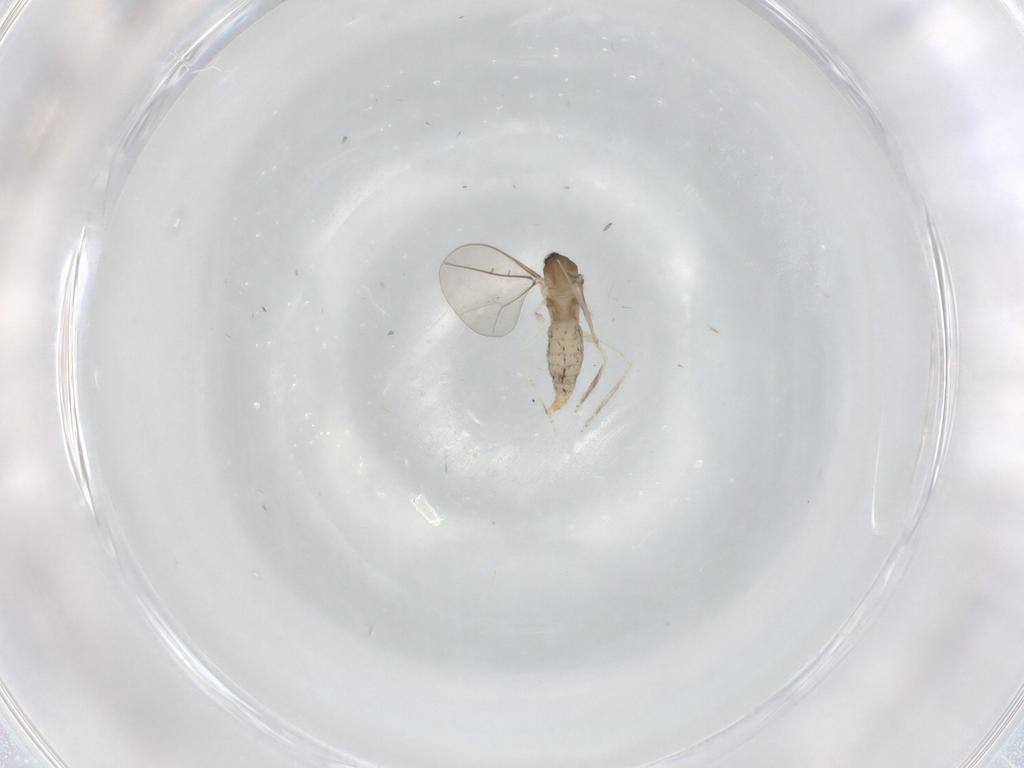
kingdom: Animalia
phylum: Arthropoda
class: Insecta
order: Diptera
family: Cecidomyiidae
